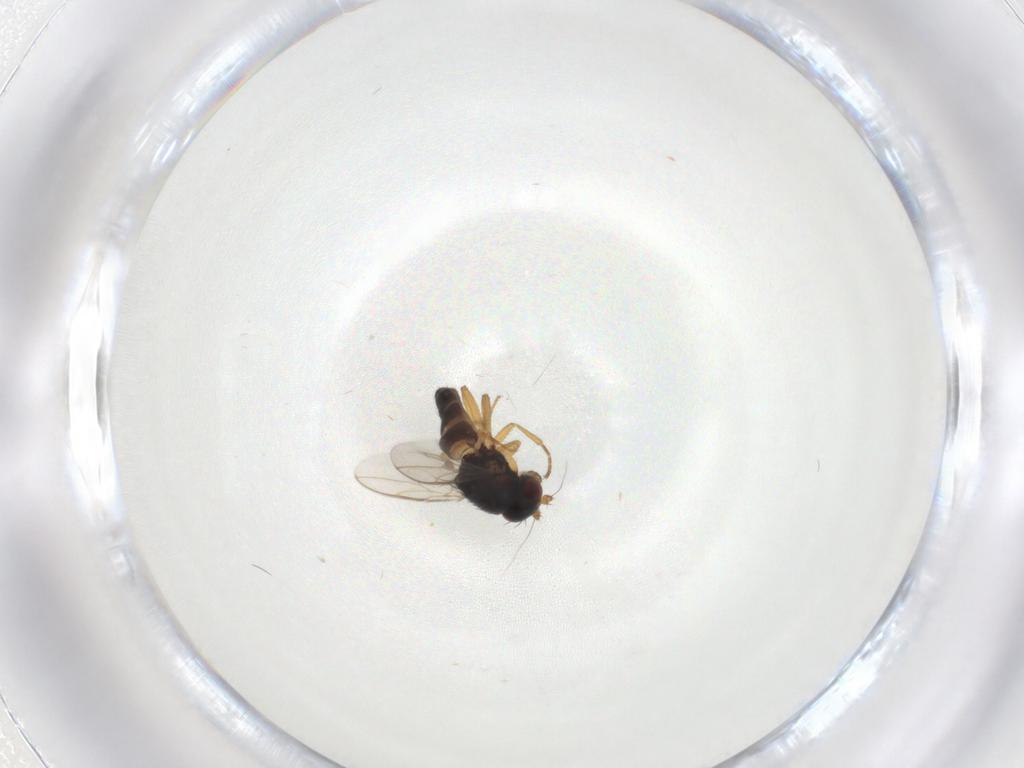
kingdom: Animalia
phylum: Arthropoda
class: Insecta
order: Diptera
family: Sphaeroceridae
